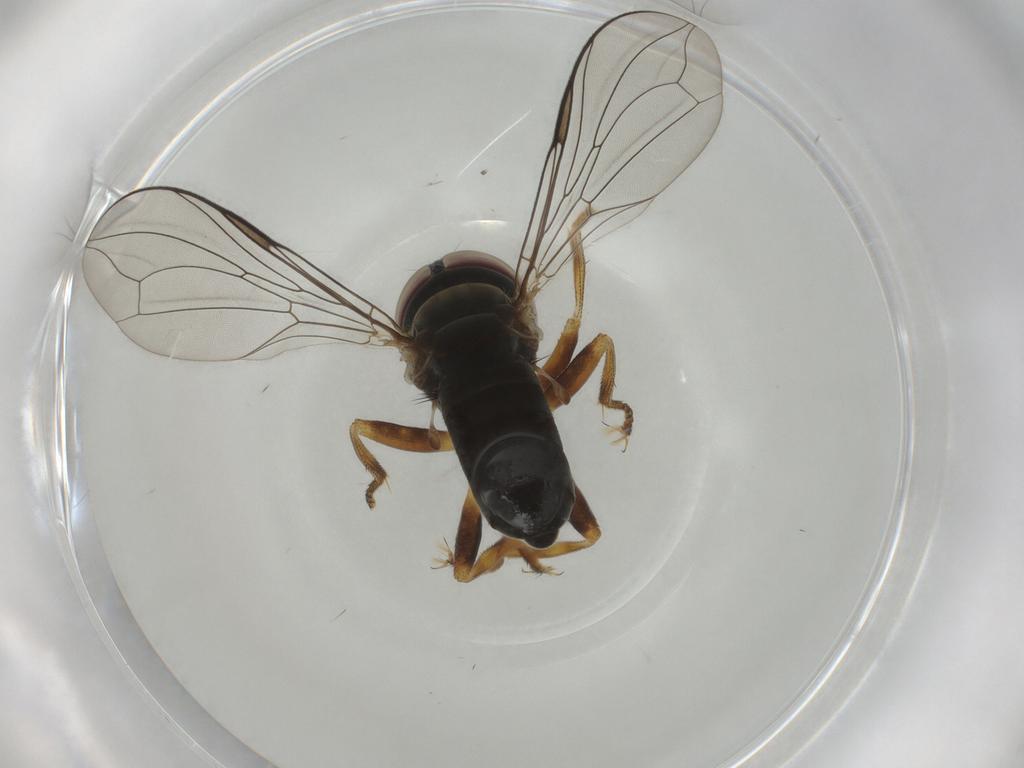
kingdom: Animalia
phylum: Arthropoda
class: Insecta
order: Diptera
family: Pipunculidae
